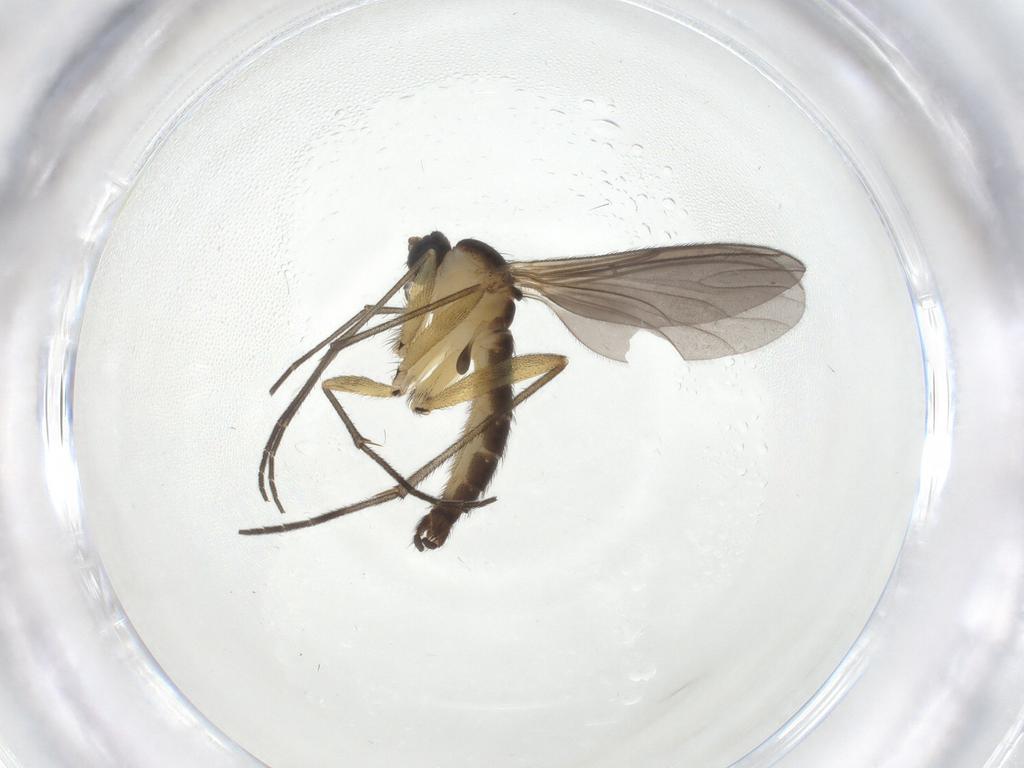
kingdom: Animalia
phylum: Arthropoda
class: Insecta
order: Diptera
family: Sciaridae
